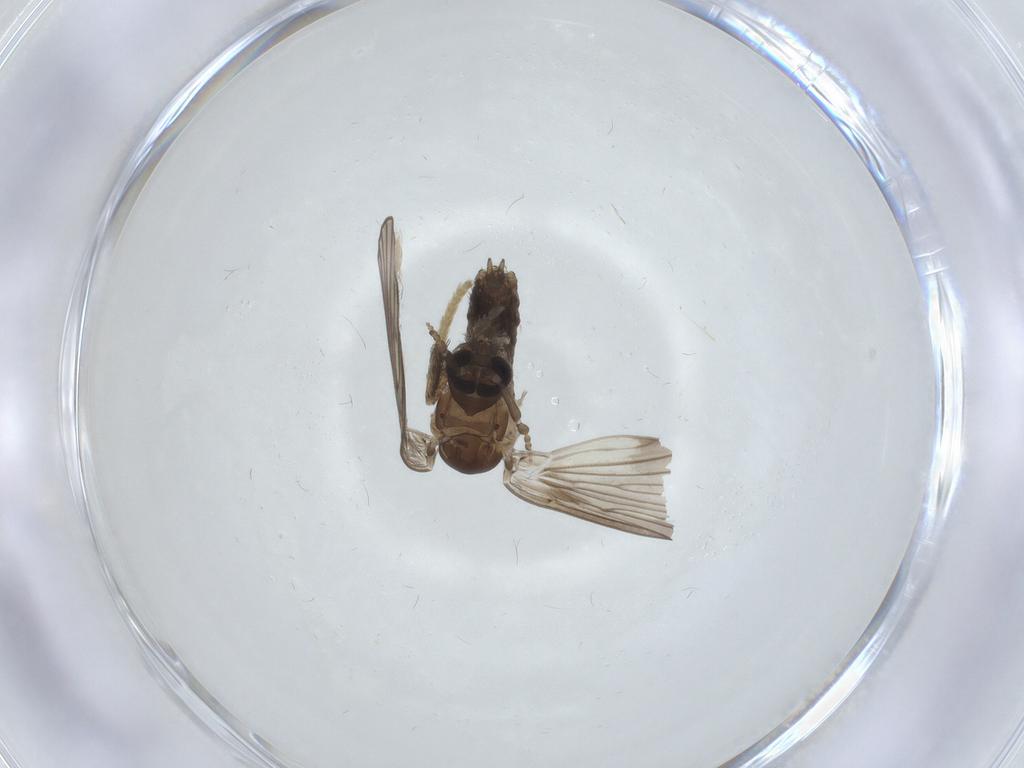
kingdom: Animalia
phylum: Arthropoda
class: Insecta
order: Diptera
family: Psychodidae
